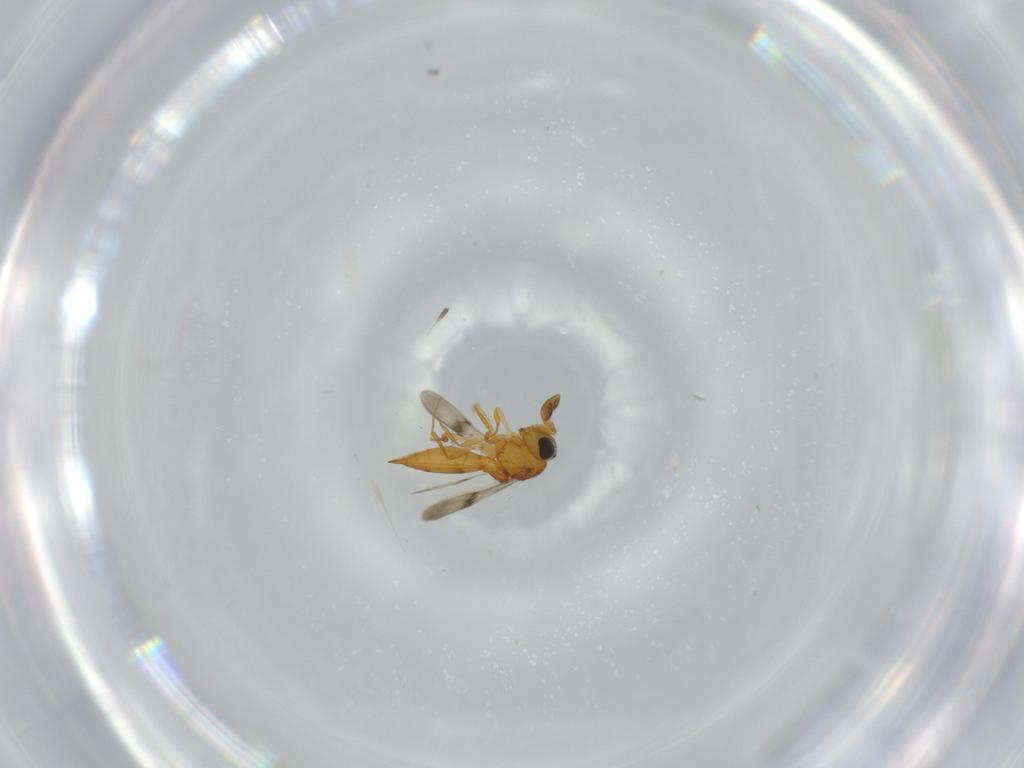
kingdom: Animalia
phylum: Arthropoda
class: Insecta
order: Hymenoptera
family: Scelionidae
